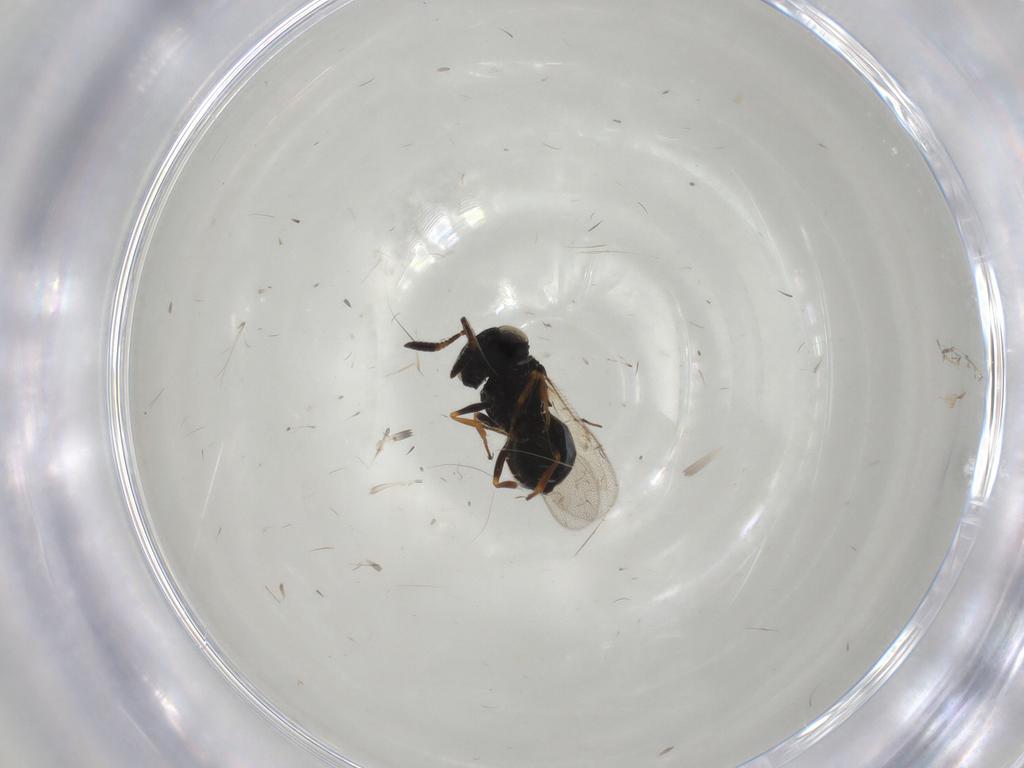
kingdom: Animalia
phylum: Arthropoda
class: Insecta
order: Hymenoptera
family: Scelionidae
